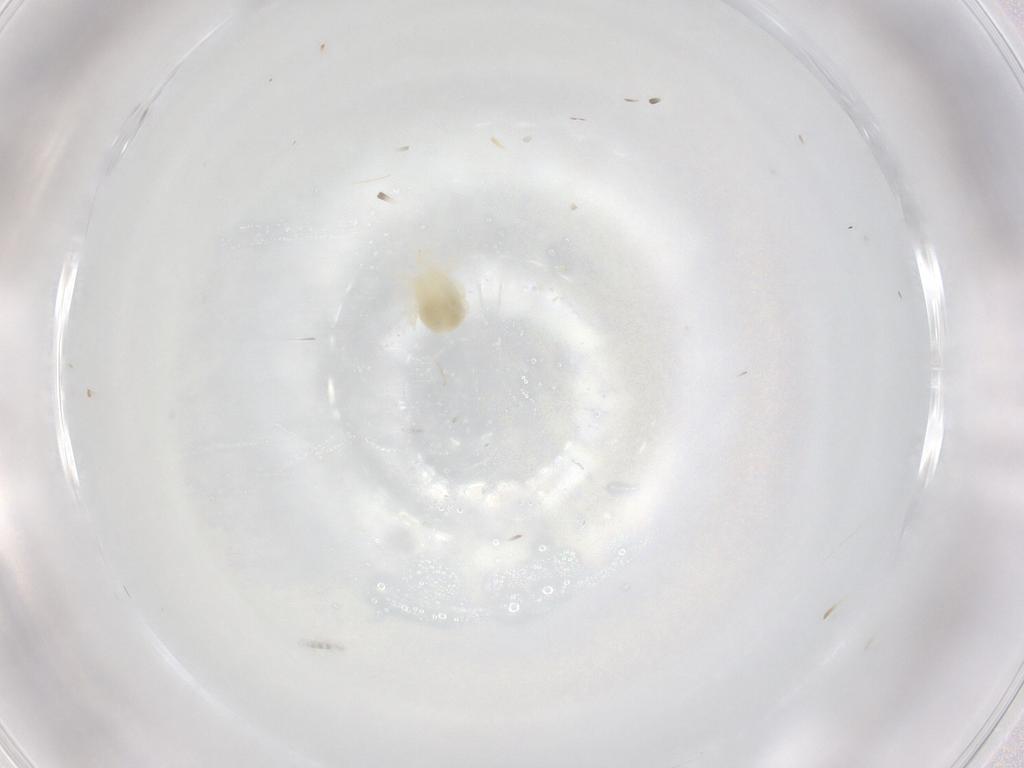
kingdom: Animalia
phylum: Arthropoda
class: Arachnida
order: Trombidiformes
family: Anystidae
